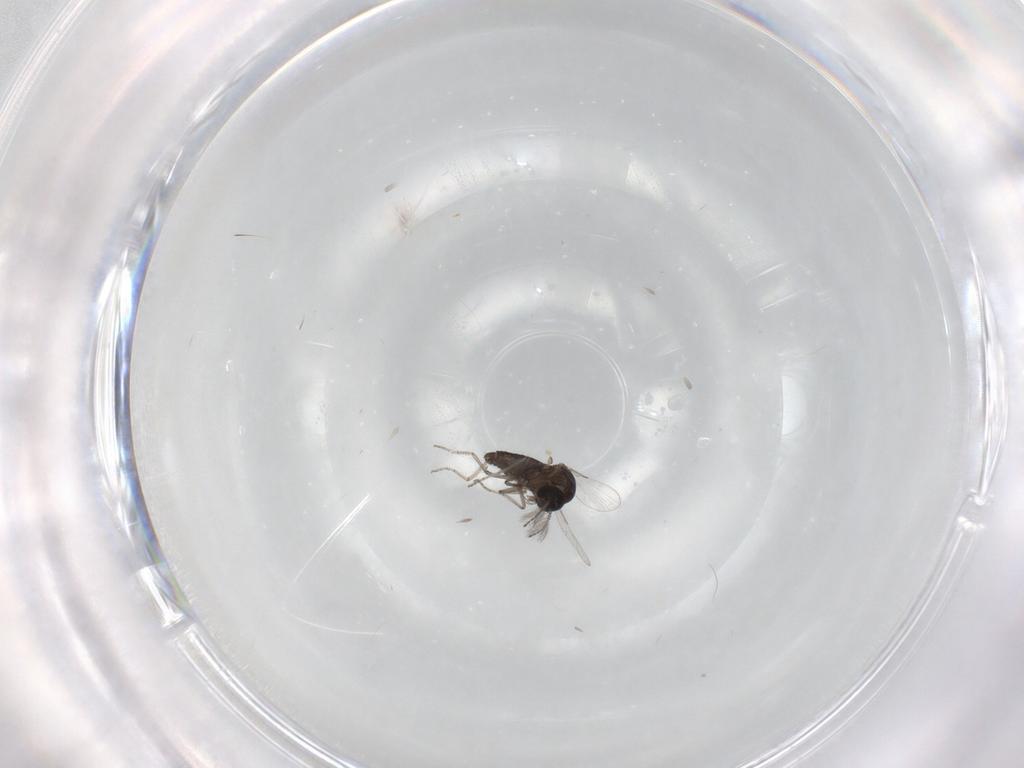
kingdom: Animalia
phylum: Arthropoda
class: Insecta
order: Diptera
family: Ceratopogonidae
